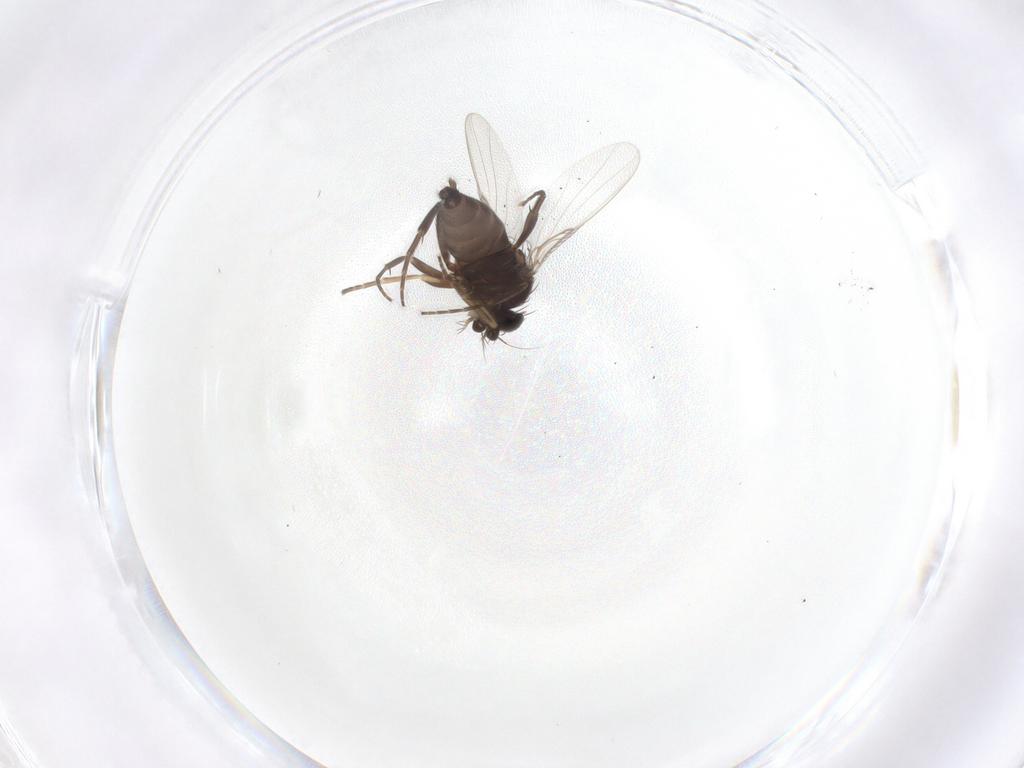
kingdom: Animalia
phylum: Arthropoda
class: Insecta
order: Diptera
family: Phoridae
